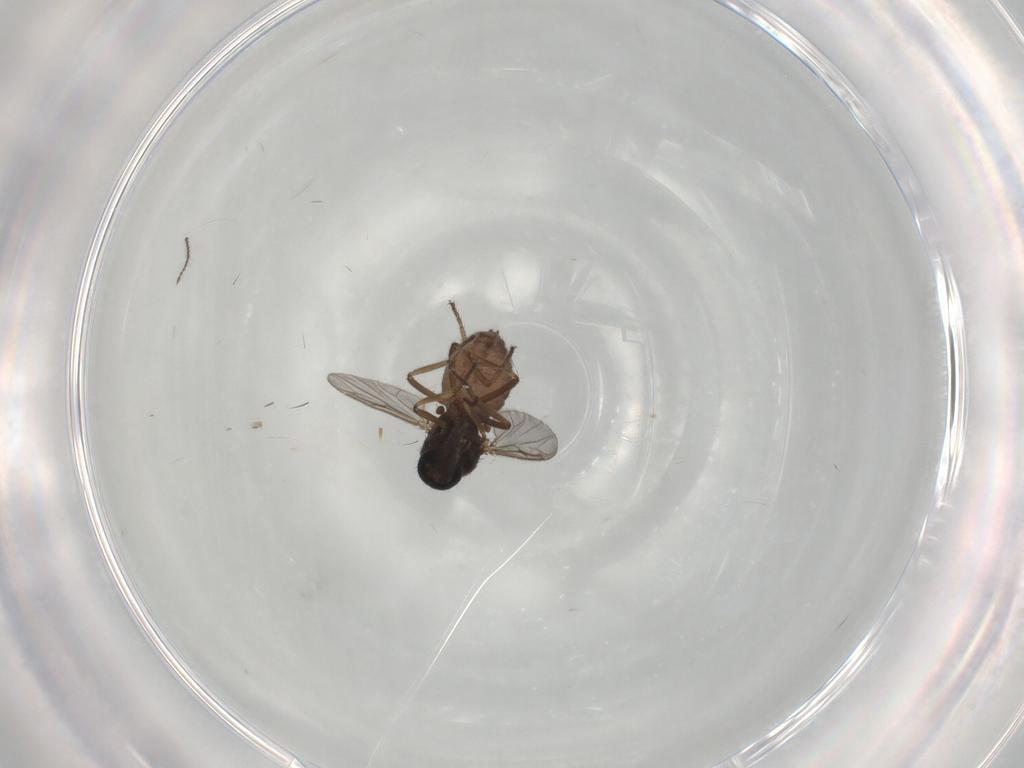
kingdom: Animalia
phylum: Arthropoda
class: Insecta
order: Diptera
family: Ceratopogonidae
